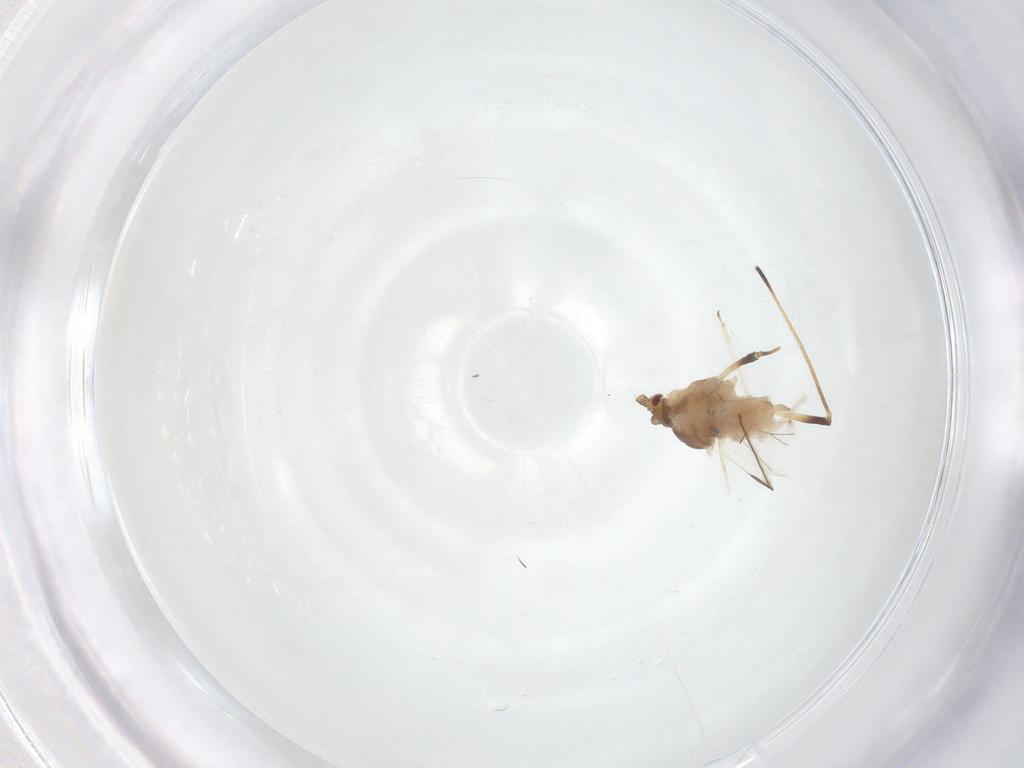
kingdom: Animalia
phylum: Arthropoda
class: Insecta
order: Hemiptera
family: Aphididae
